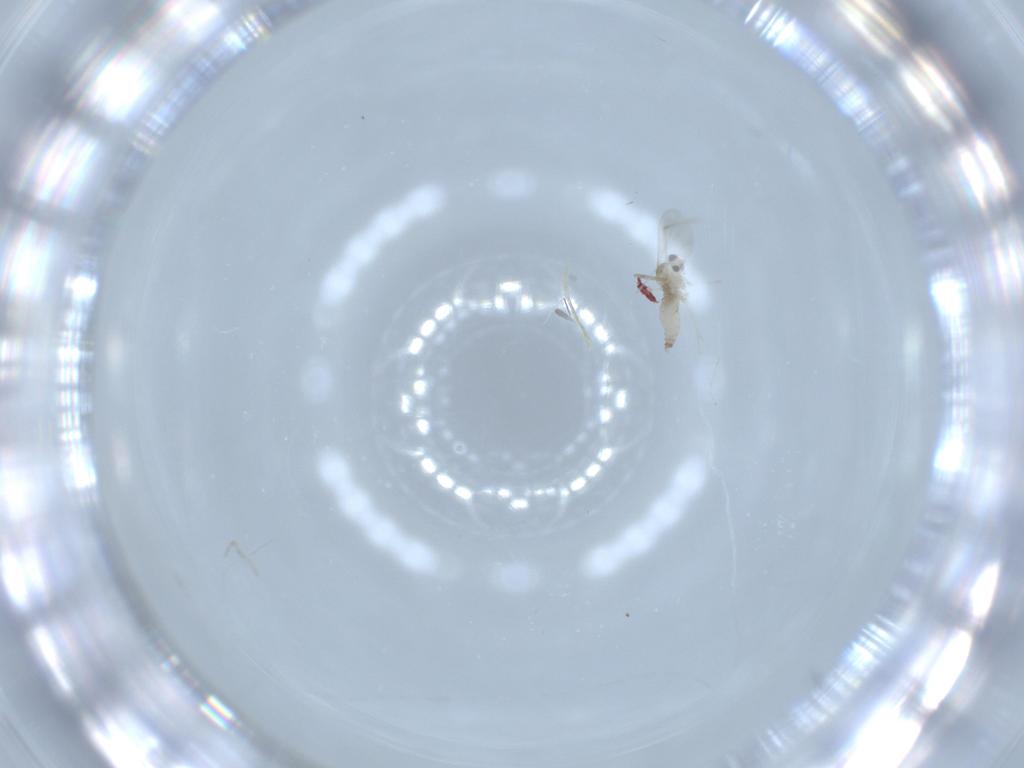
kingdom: Animalia
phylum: Arthropoda
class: Insecta
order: Diptera
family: Cecidomyiidae
